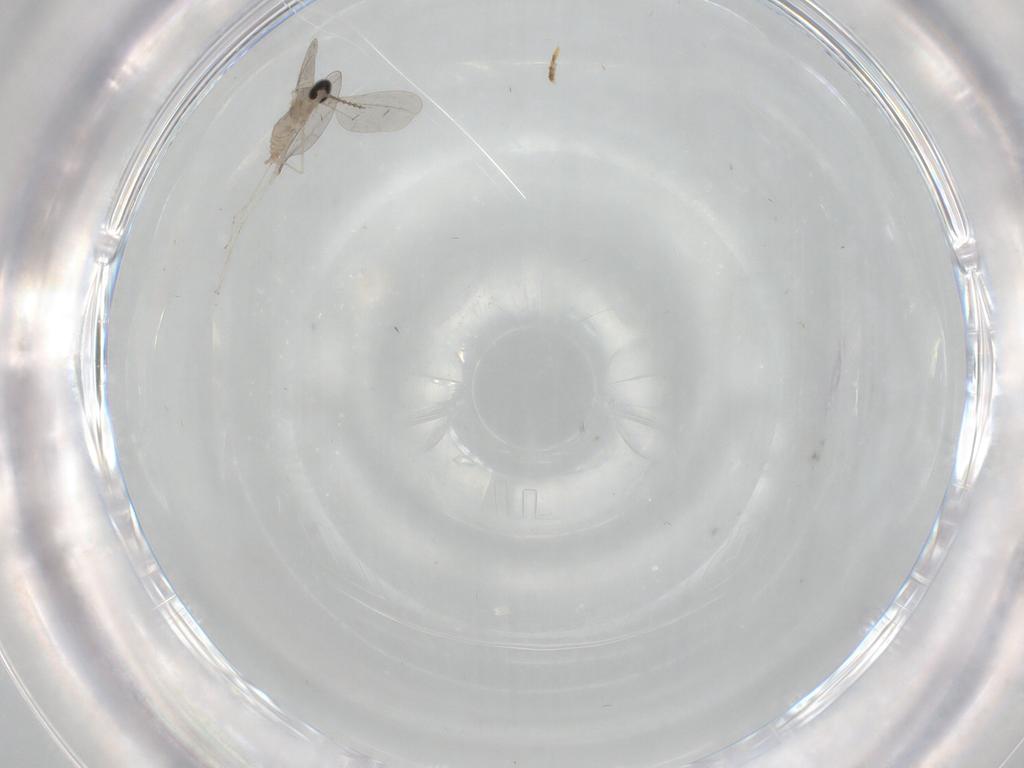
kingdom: Animalia
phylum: Arthropoda
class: Insecta
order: Diptera
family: Cecidomyiidae
